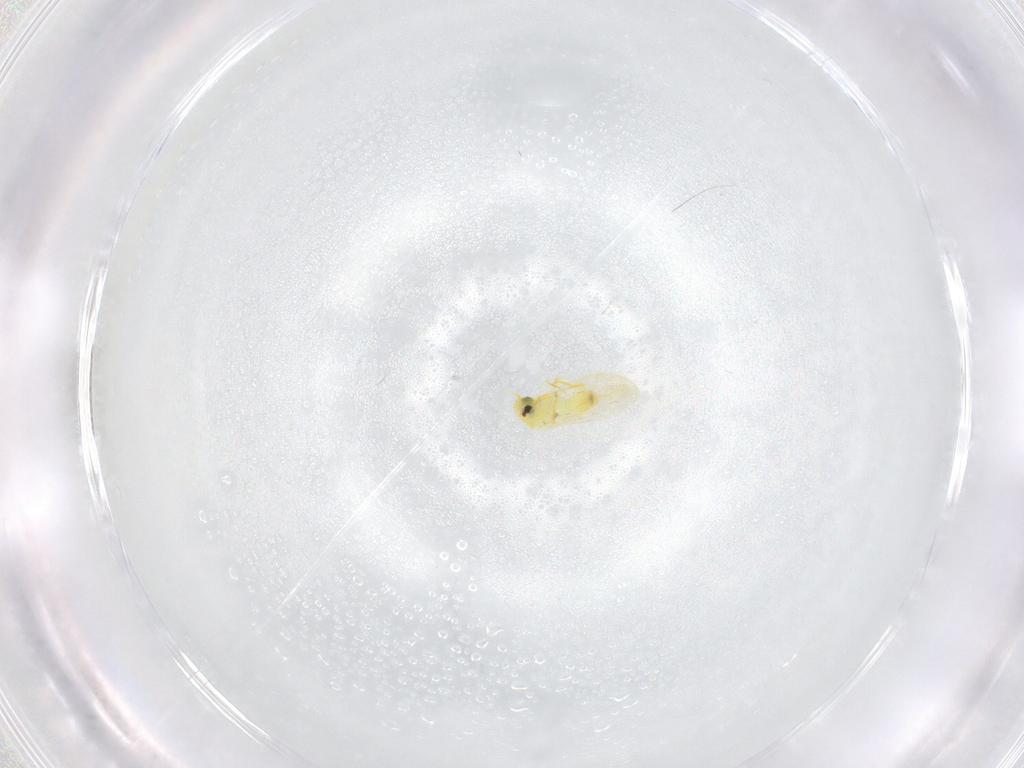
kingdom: Animalia
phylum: Arthropoda
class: Insecta
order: Hemiptera
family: Aleyrodidae
